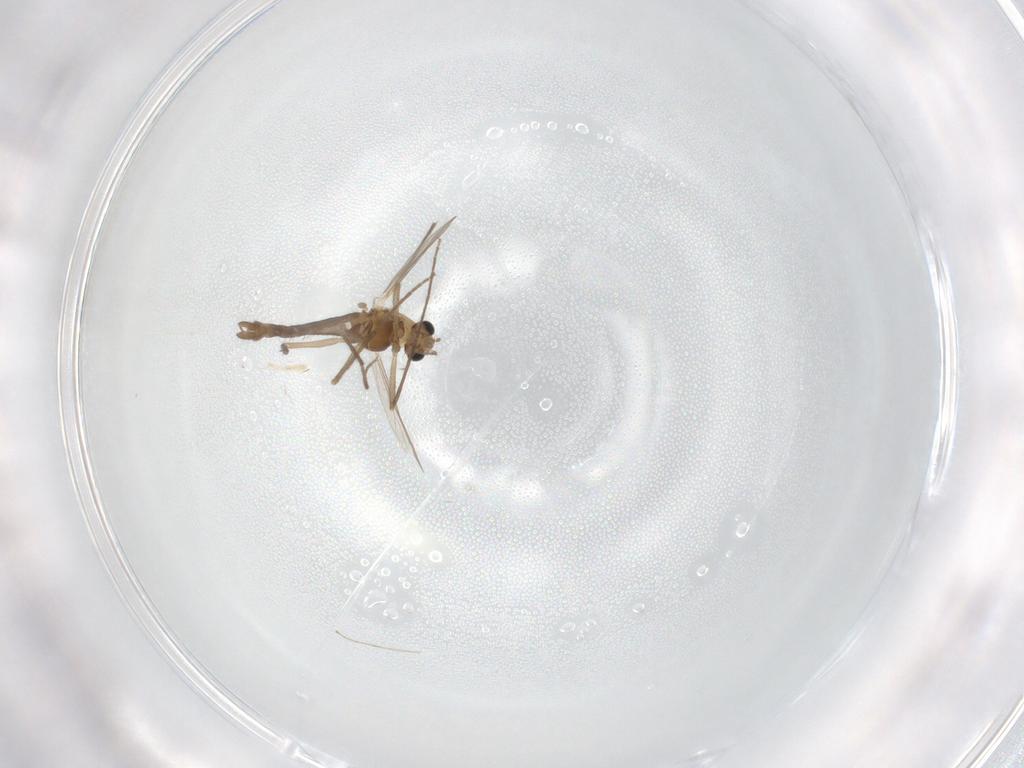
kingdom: Animalia
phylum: Arthropoda
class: Insecta
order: Diptera
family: Chironomidae
